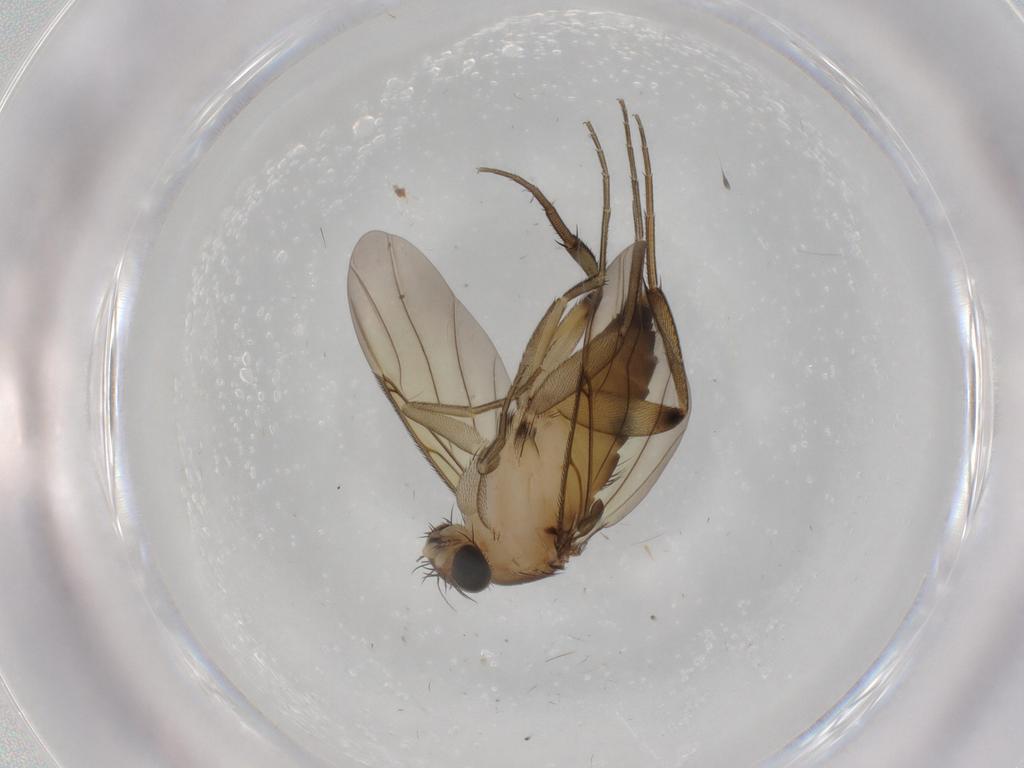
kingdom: Animalia
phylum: Arthropoda
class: Insecta
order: Diptera
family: Phoridae
